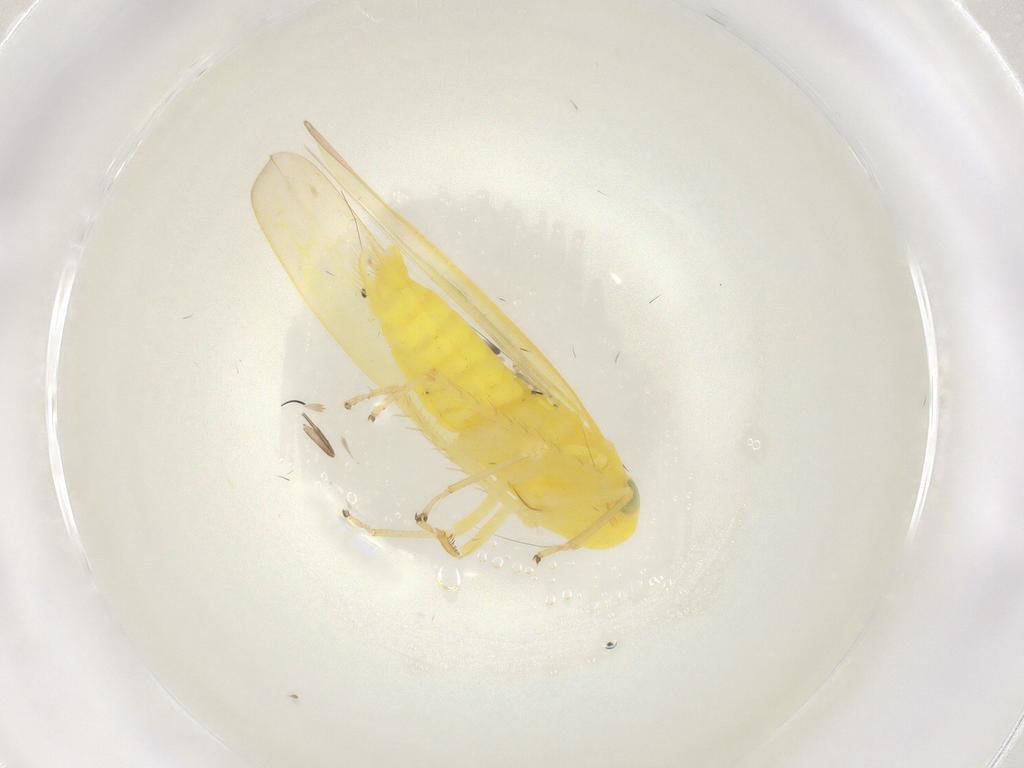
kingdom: Animalia
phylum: Arthropoda
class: Insecta
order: Hemiptera
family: Cicadellidae
